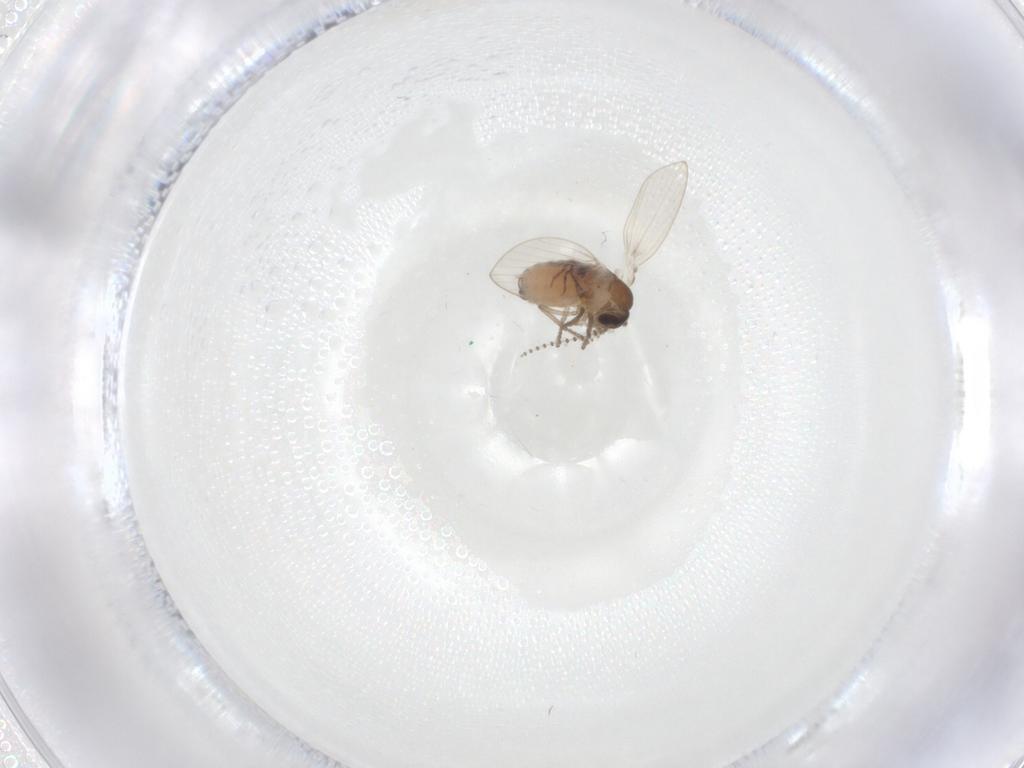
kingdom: Animalia
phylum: Arthropoda
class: Insecta
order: Diptera
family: Psychodidae
